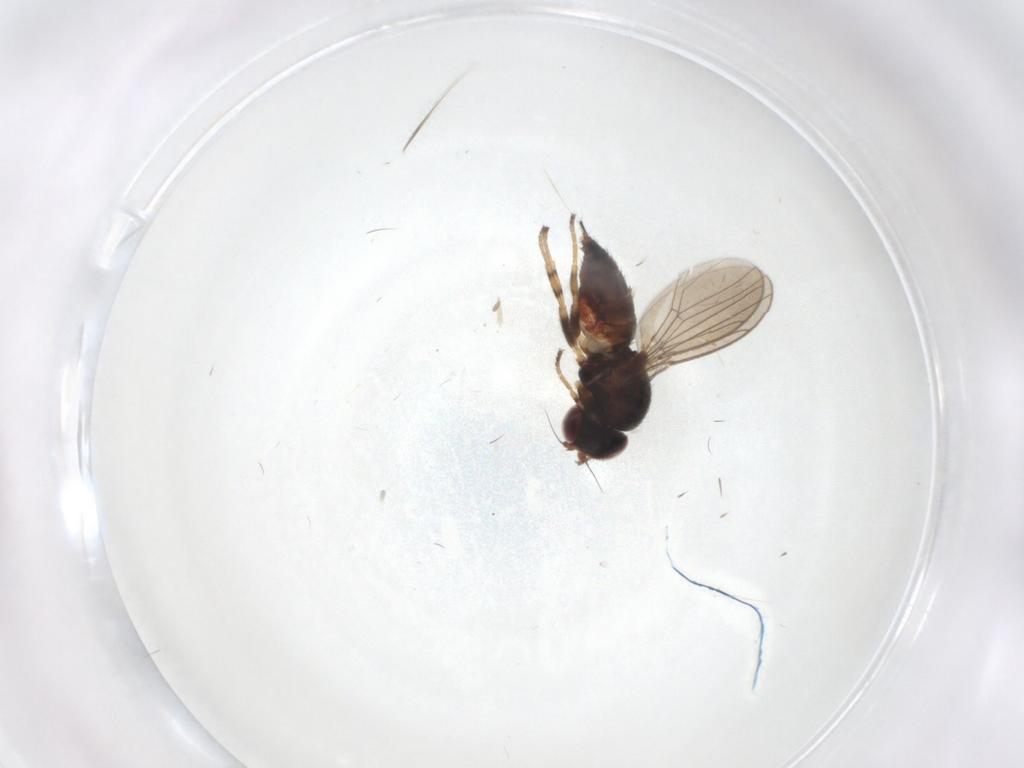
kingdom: Animalia
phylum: Arthropoda
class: Insecta
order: Diptera
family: Chloropidae
